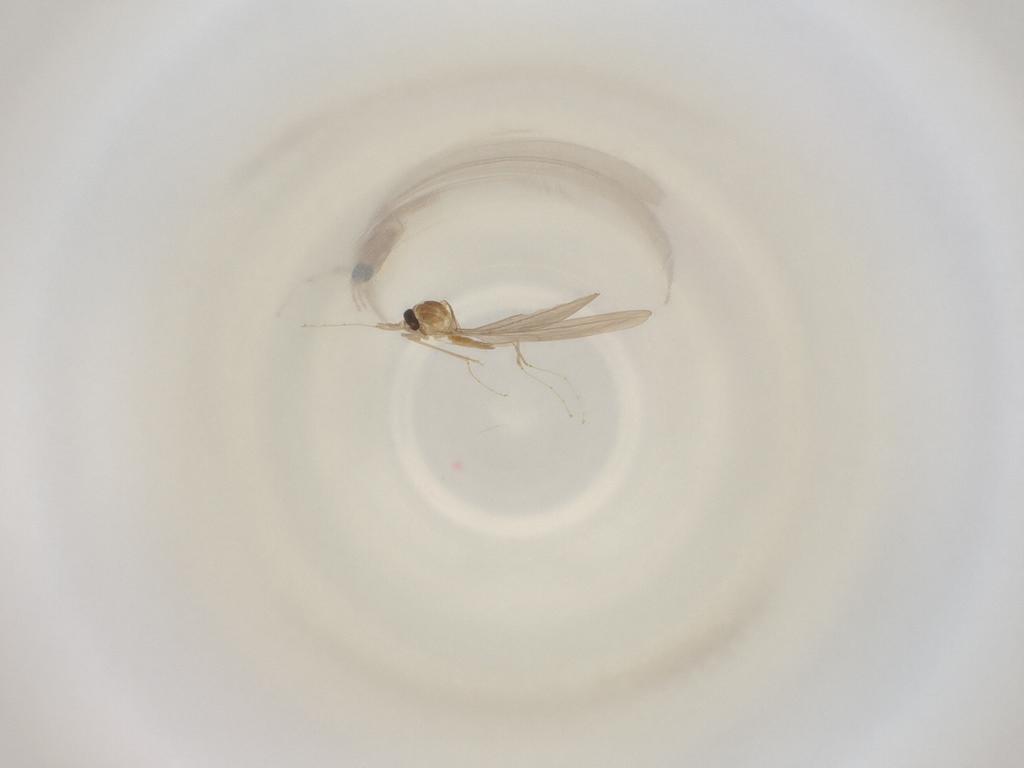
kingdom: Animalia
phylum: Arthropoda
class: Insecta
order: Diptera
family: Cecidomyiidae
